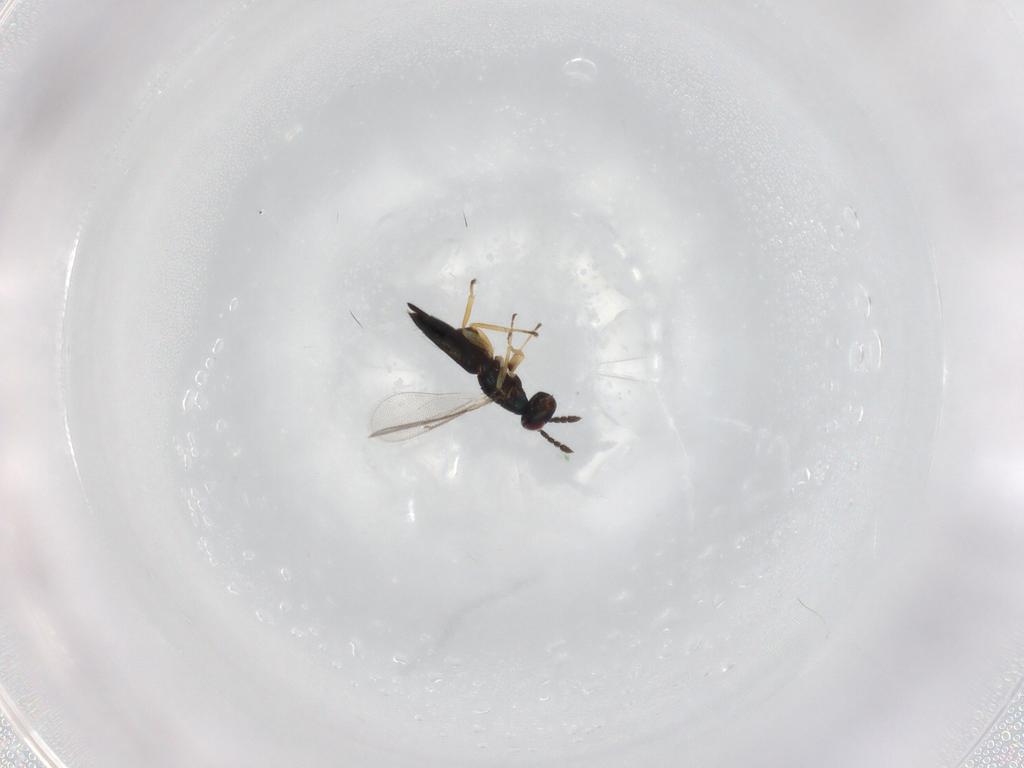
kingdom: Animalia
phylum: Arthropoda
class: Insecta
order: Hymenoptera
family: Eulophidae
